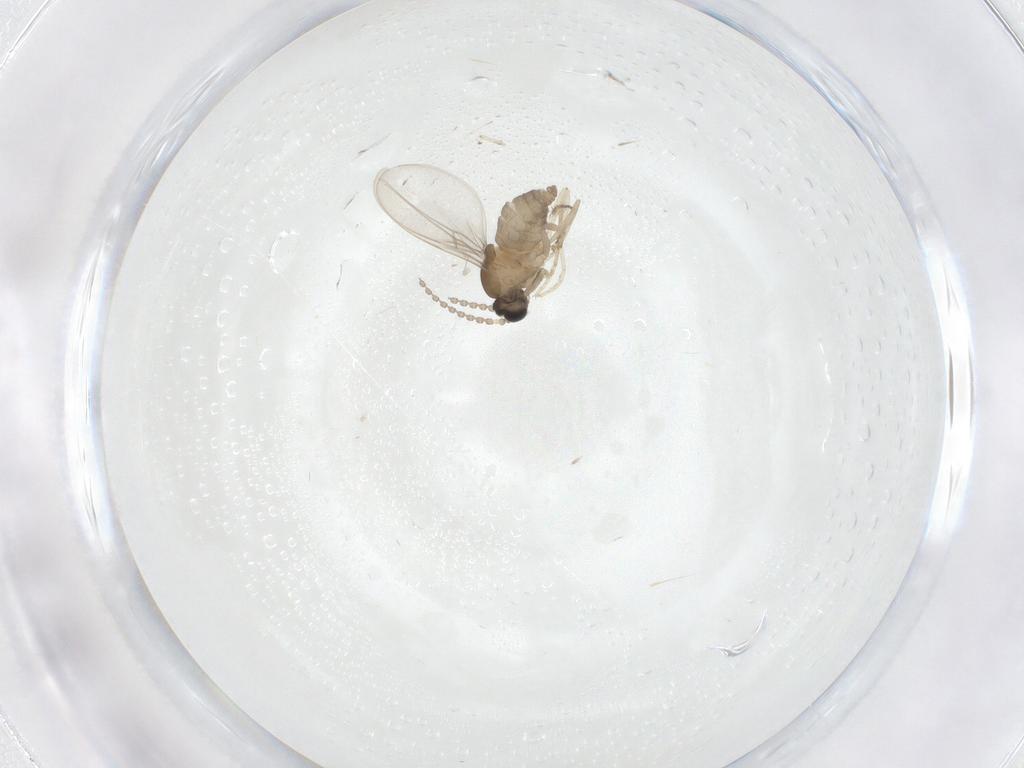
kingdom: Animalia
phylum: Arthropoda
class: Insecta
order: Diptera
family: Cecidomyiidae
